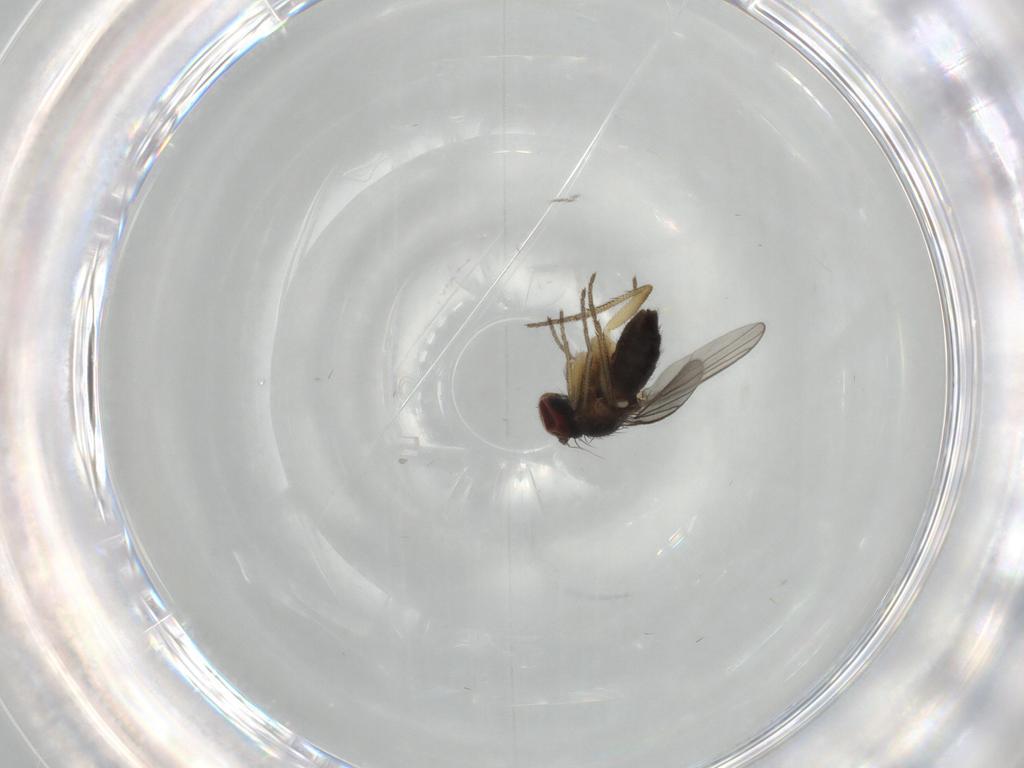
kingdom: Animalia
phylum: Arthropoda
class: Insecta
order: Diptera
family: Dolichopodidae
